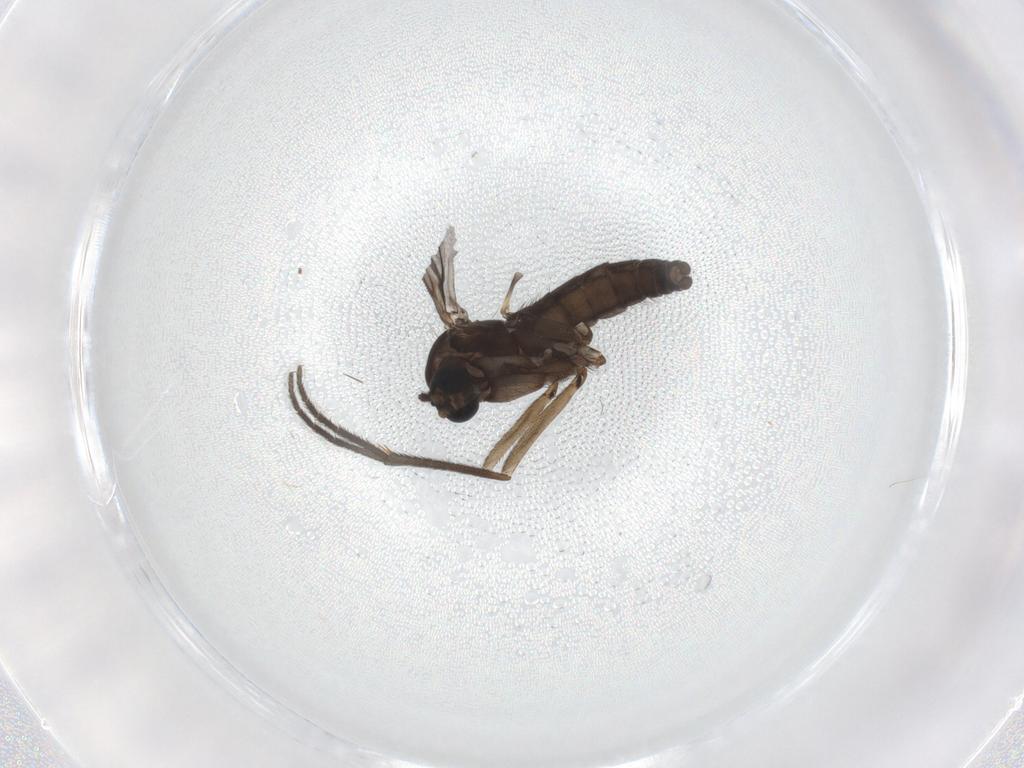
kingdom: Animalia
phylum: Arthropoda
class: Insecta
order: Diptera
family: Sciaridae
